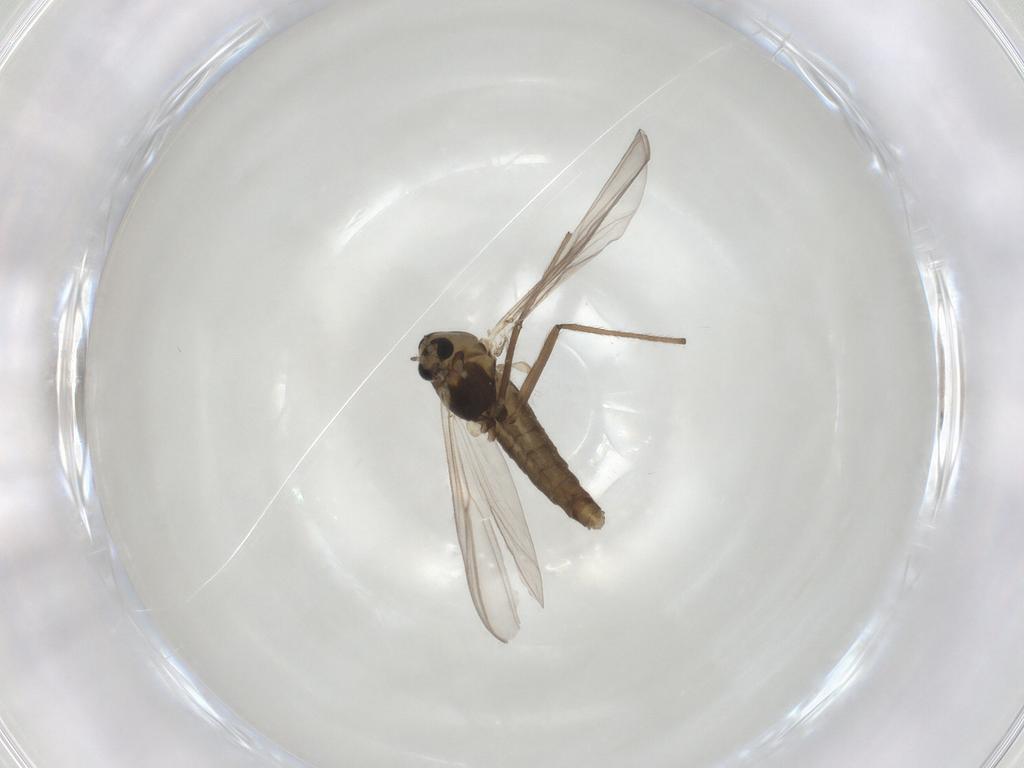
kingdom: Animalia
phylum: Arthropoda
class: Insecta
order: Diptera
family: Chironomidae
